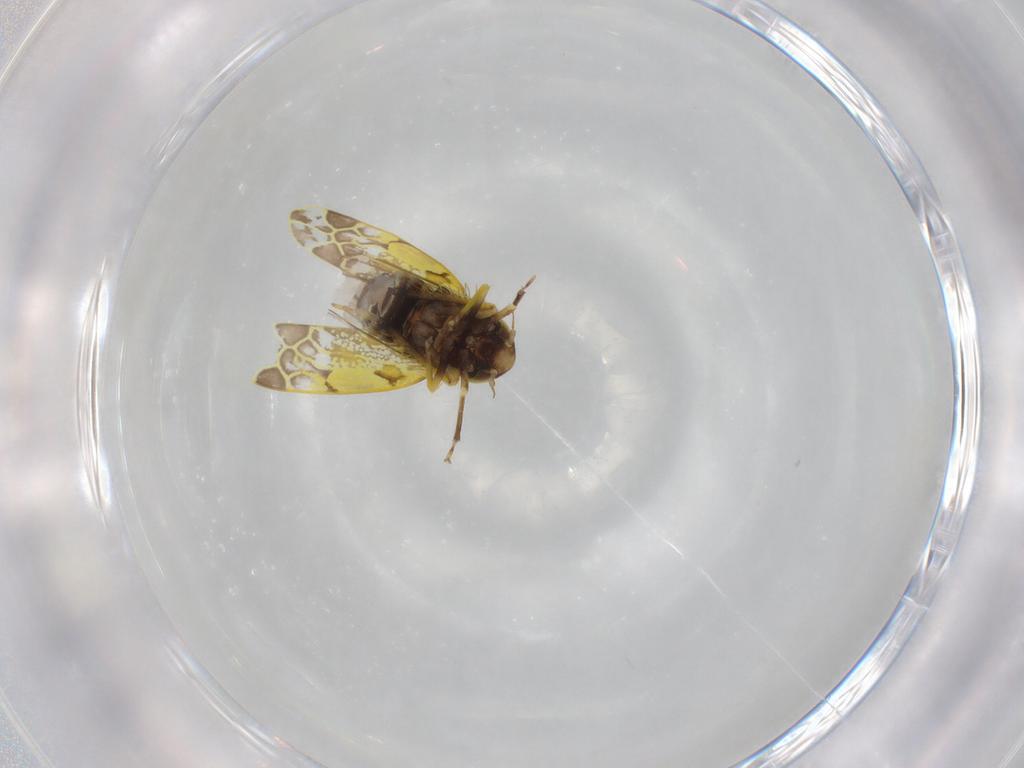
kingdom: Animalia
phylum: Arthropoda
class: Insecta
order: Hemiptera
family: Cicadellidae
